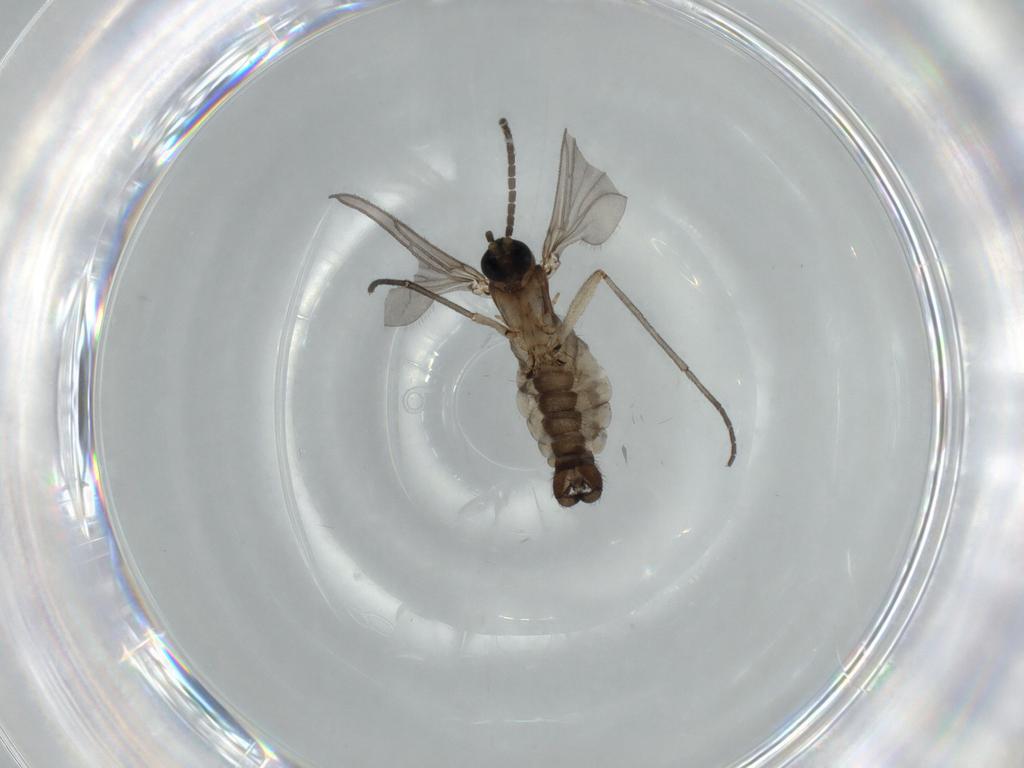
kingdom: Animalia
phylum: Arthropoda
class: Insecta
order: Diptera
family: Sciaridae
